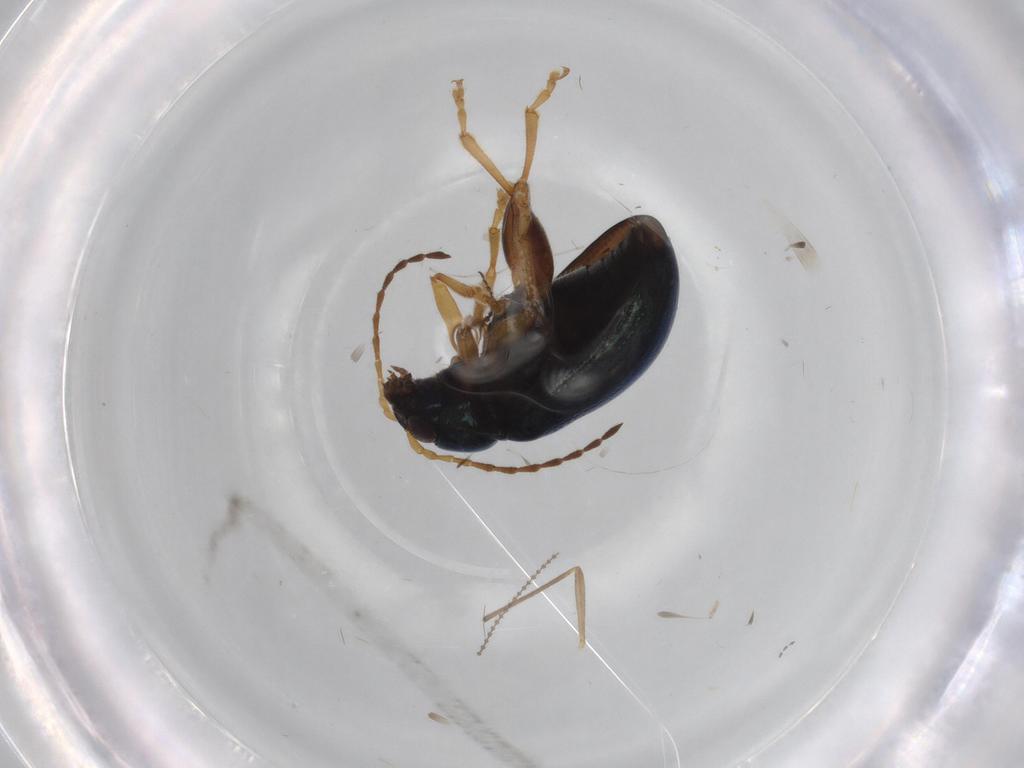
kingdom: Animalia
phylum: Arthropoda
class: Insecta
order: Coleoptera
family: Chrysomelidae
